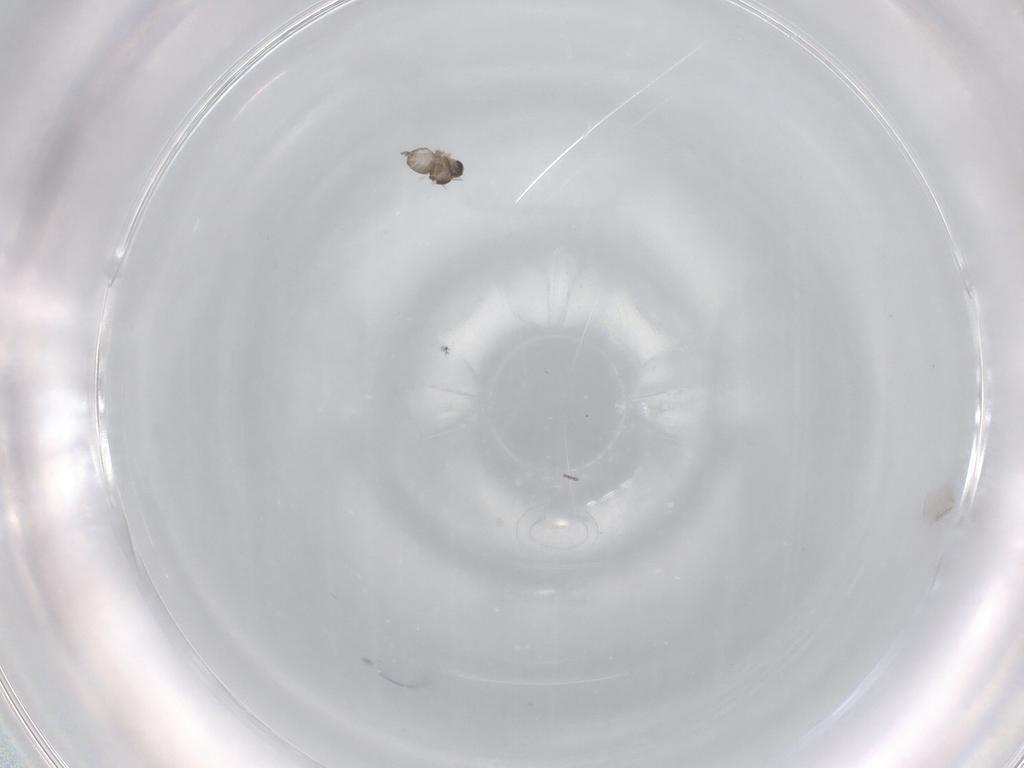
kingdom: Animalia
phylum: Arthropoda
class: Insecta
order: Diptera
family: Cecidomyiidae
